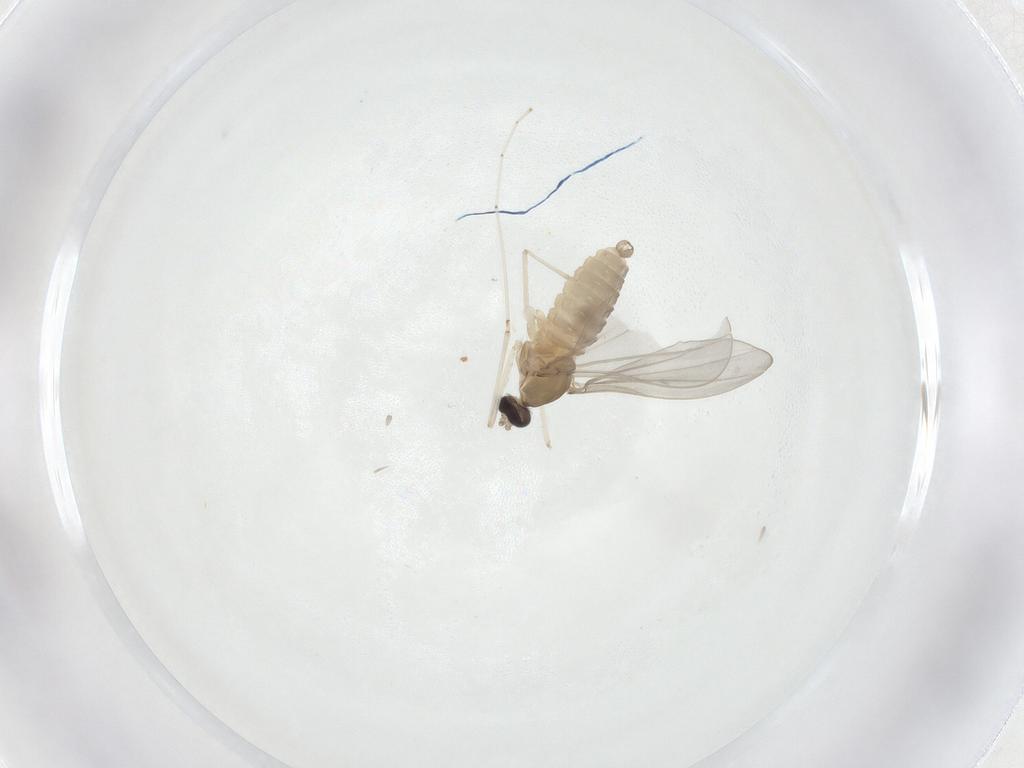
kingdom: Animalia
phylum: Arthropoda
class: Insecta
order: Diptera
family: Cecidomyiidae
